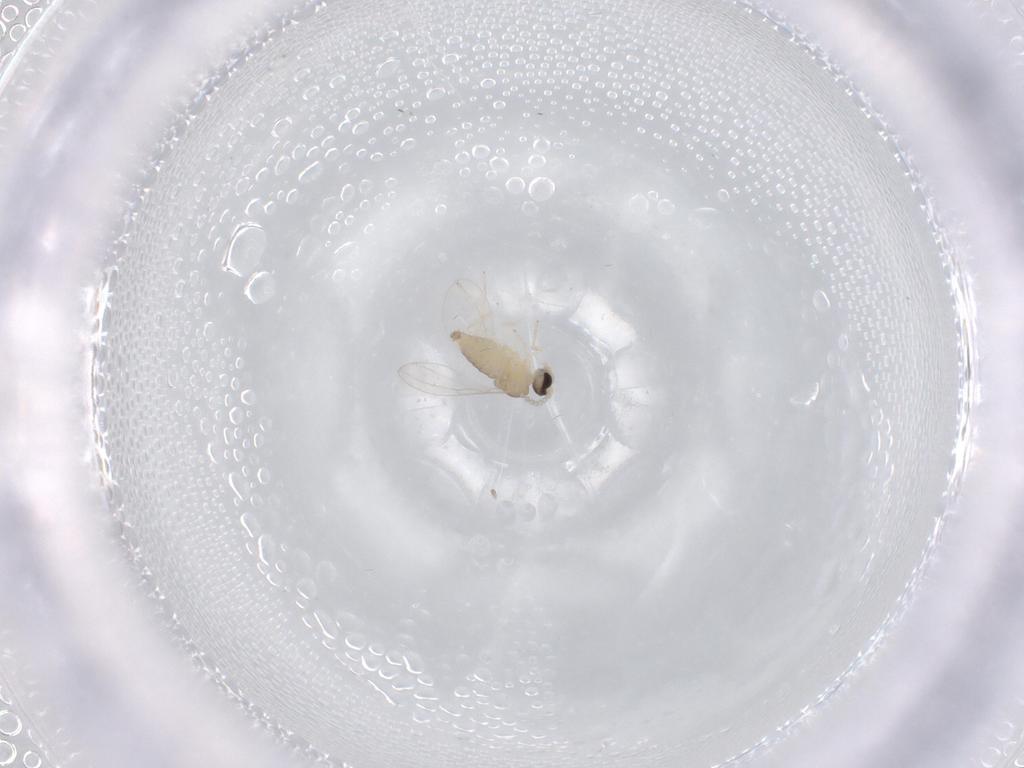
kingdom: Animalia
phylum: Arthropoda
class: Insecta
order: Diptera
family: Cecidomyiidae
